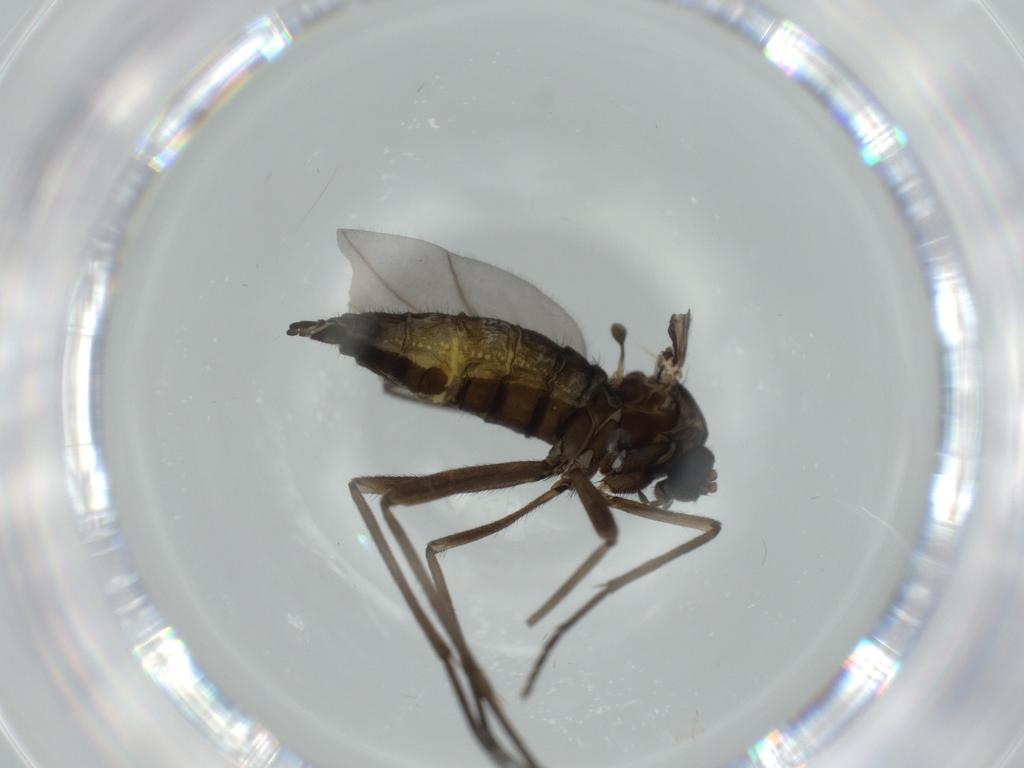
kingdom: Animalia
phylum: Arthropoda
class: Insecta
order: Diptera
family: Sciaridae
